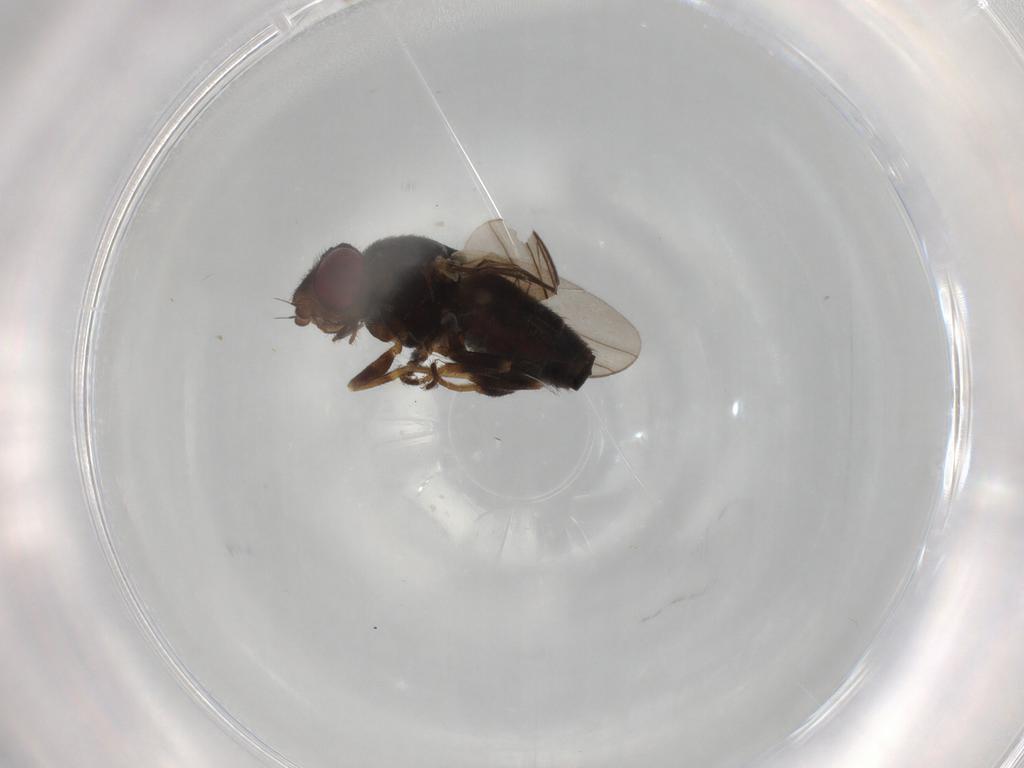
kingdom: Animalia
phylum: Arthropoda
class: Insecta
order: Diptera
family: Chloropidae
